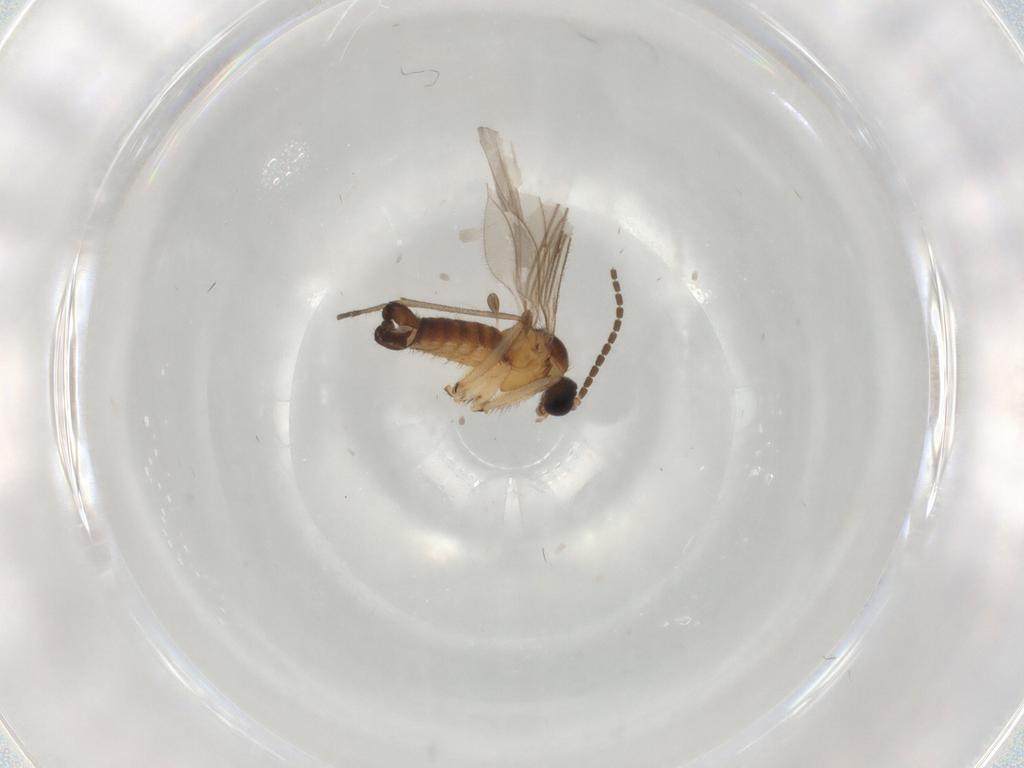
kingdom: Animalia
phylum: Arthropoda
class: Insecta
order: Diptera
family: Sciaridae
